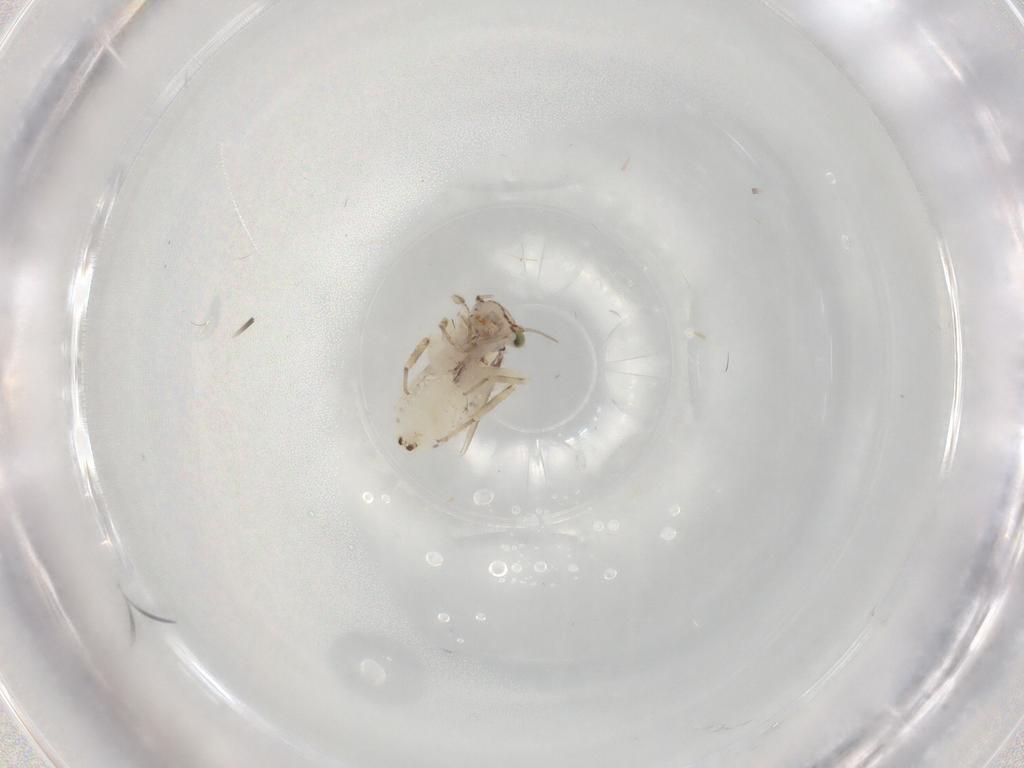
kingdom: Animalia
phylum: Arthropoda
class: Insecta
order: Psocodea
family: Lepidopsocidae
